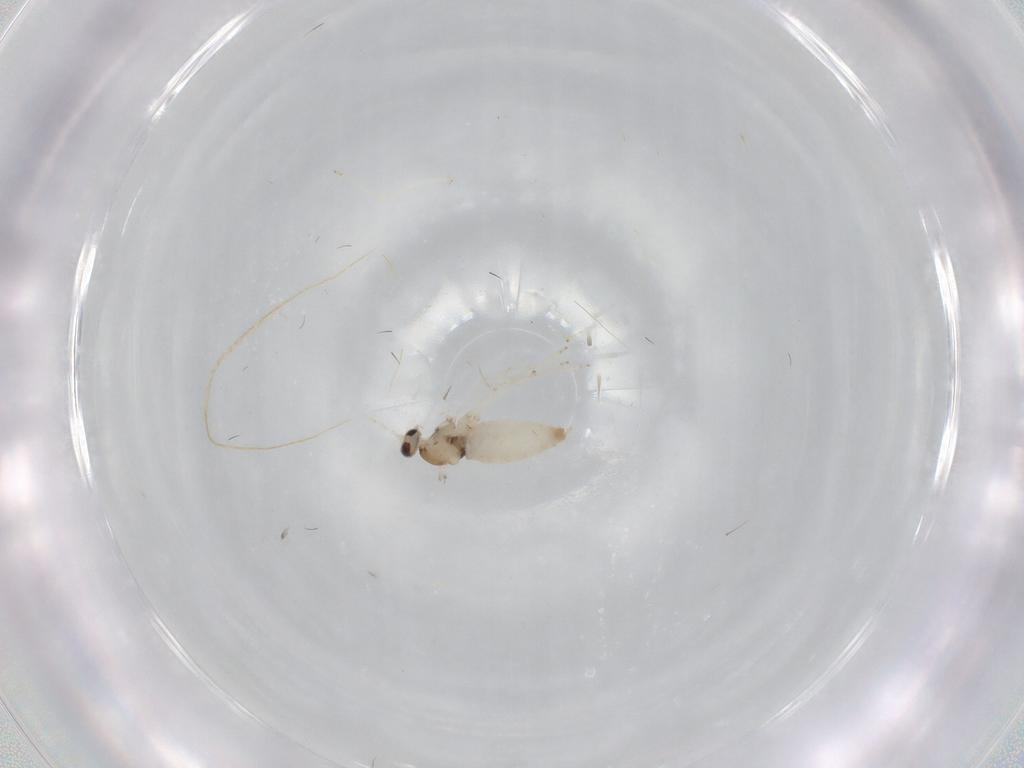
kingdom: Animalia
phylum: Arthropoda
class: Insecta
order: Diptera
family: Cecidomyiidae
